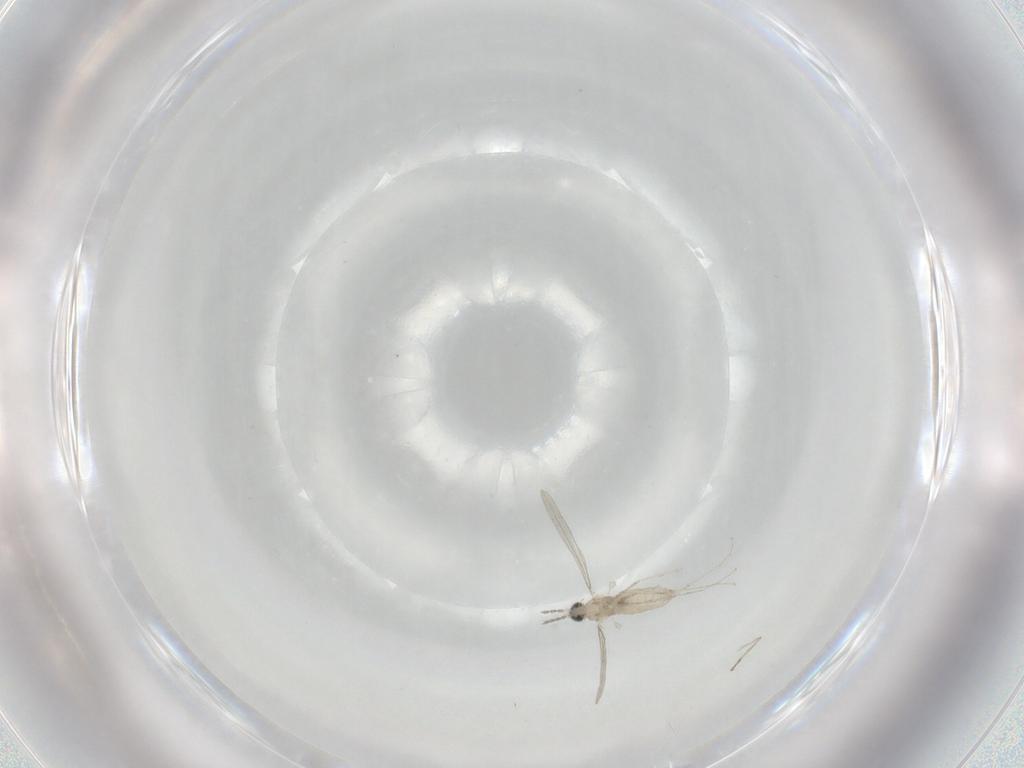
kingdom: Animalia
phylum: Arthropoda
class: Insecta
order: Diptera
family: Cecidomyiidae
